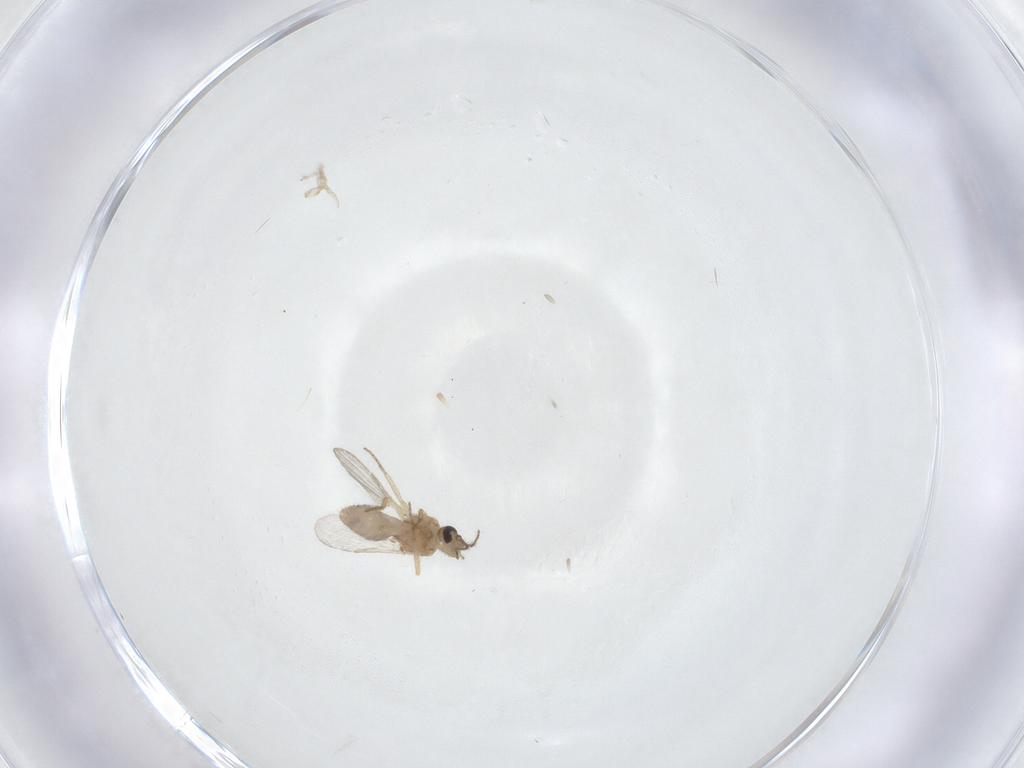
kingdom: Animalia
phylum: Arthropoda
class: Insecta
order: Diptera
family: Ceratopogonidae
